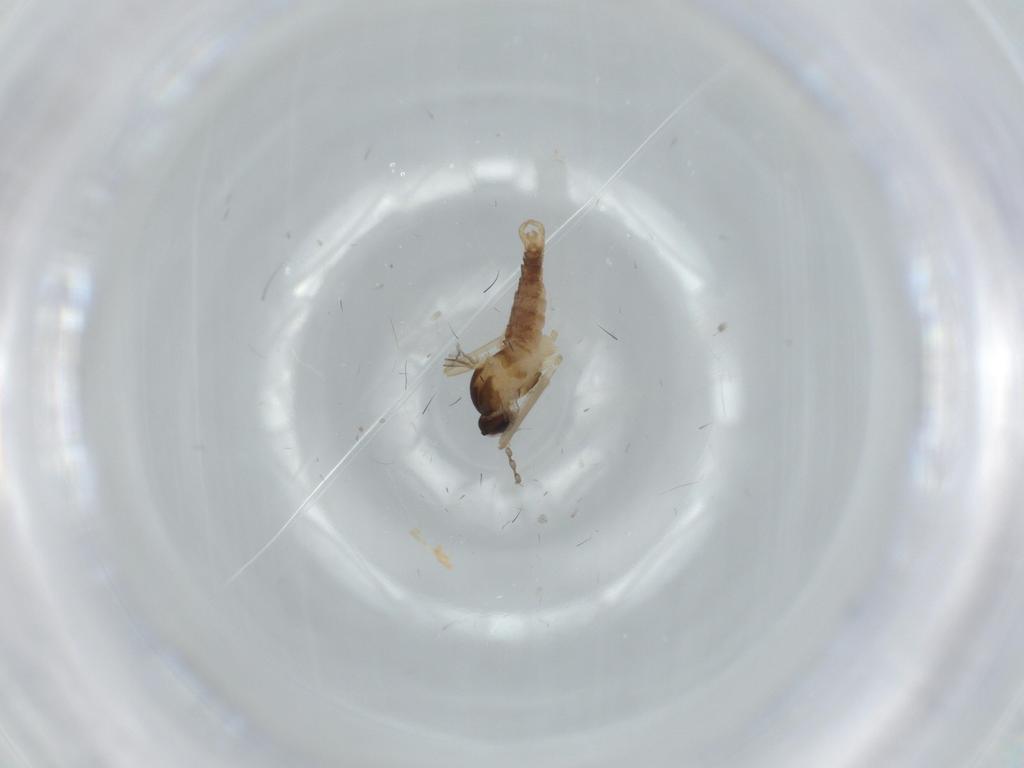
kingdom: Animalia
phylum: Arthropoda
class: Insecta
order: Diptera
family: Cecidomyiidae
